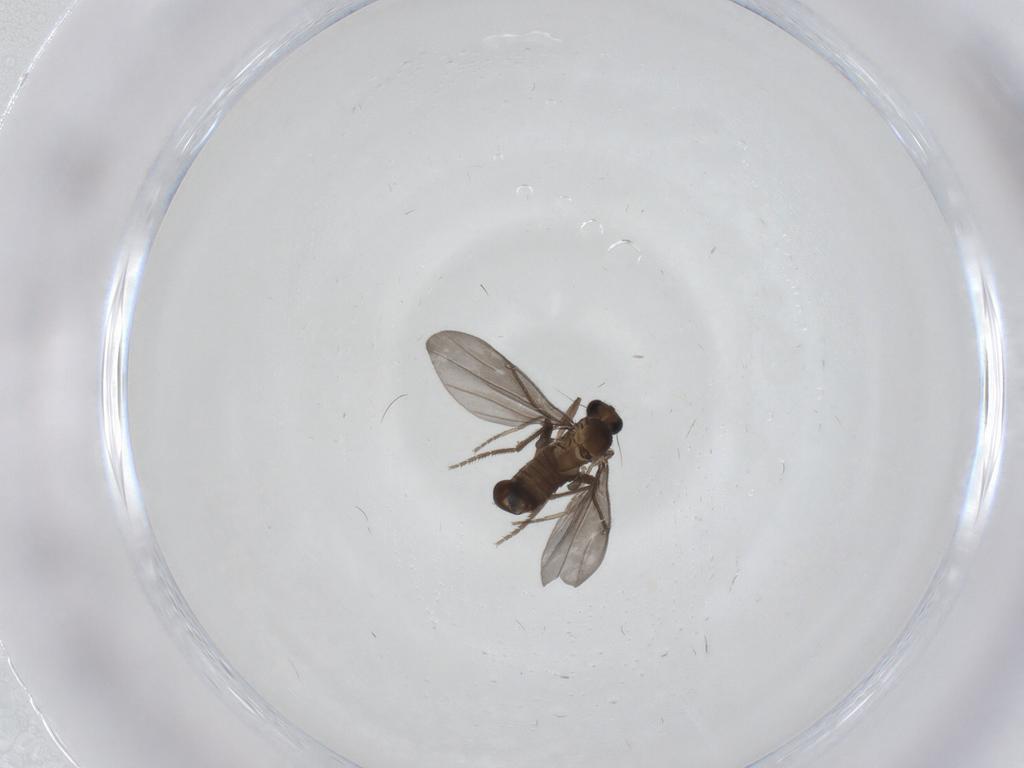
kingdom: Animalia
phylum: Arthropoda
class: Insecta
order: Diptera
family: Phoridae
